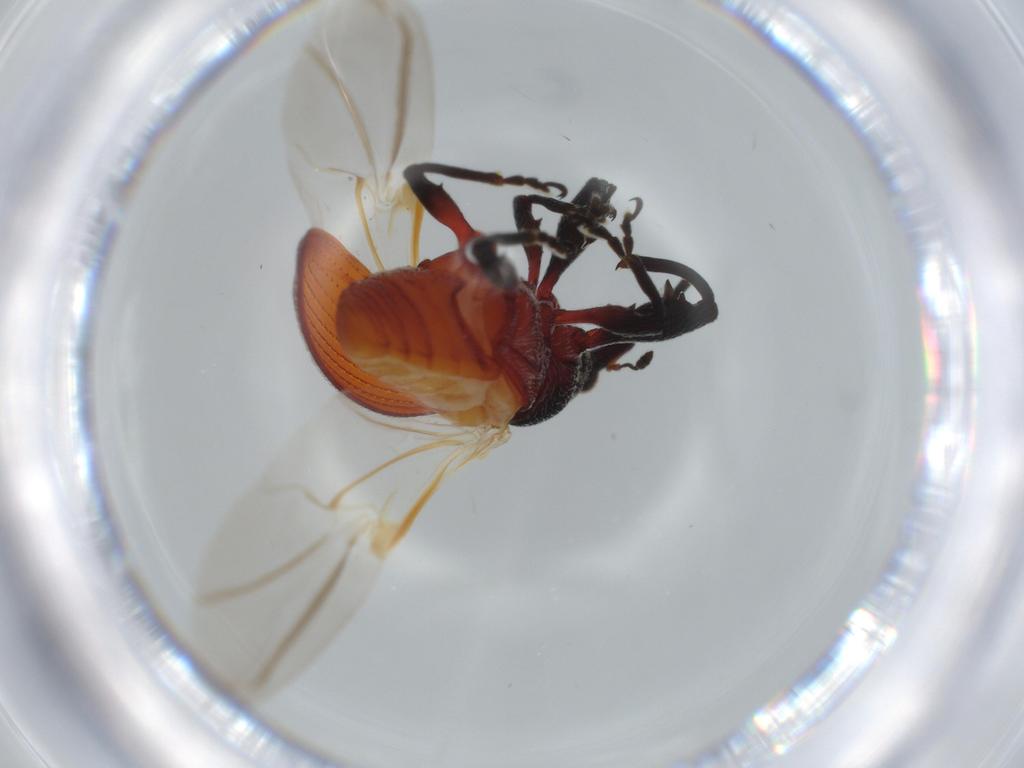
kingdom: Animalia
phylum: Arthropoda
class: Insecta
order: Coleoptera
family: Curculionidae
